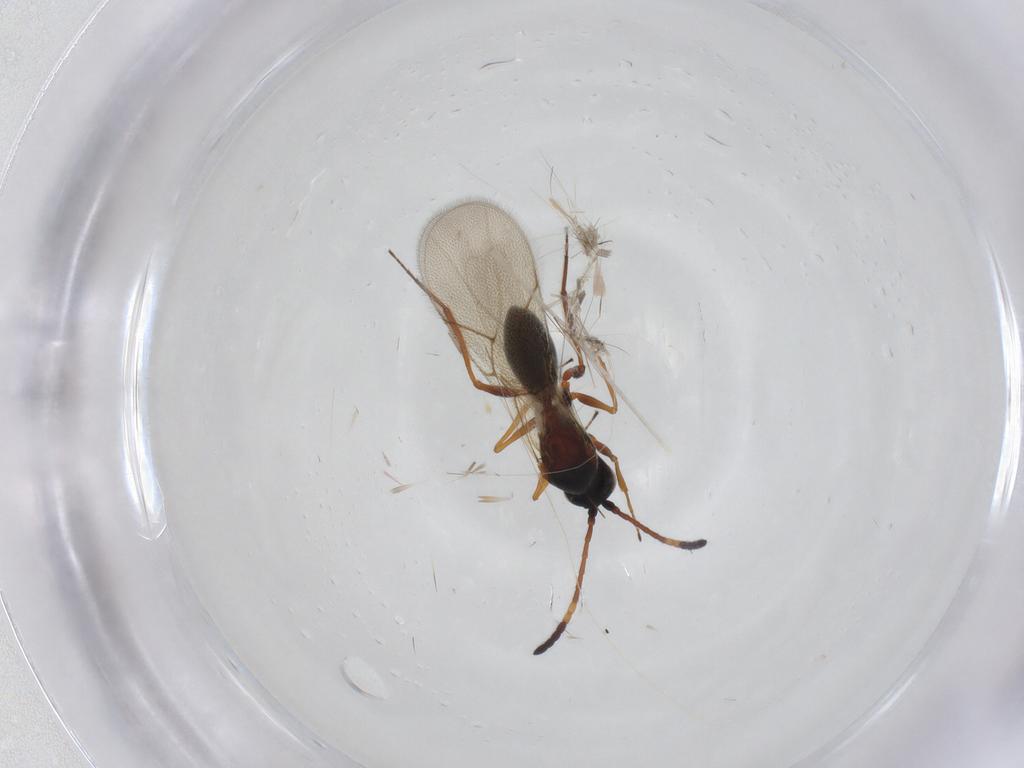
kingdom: Animalia
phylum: Arthropoda
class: Insecta
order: Hymenoptera
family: Figitidae
